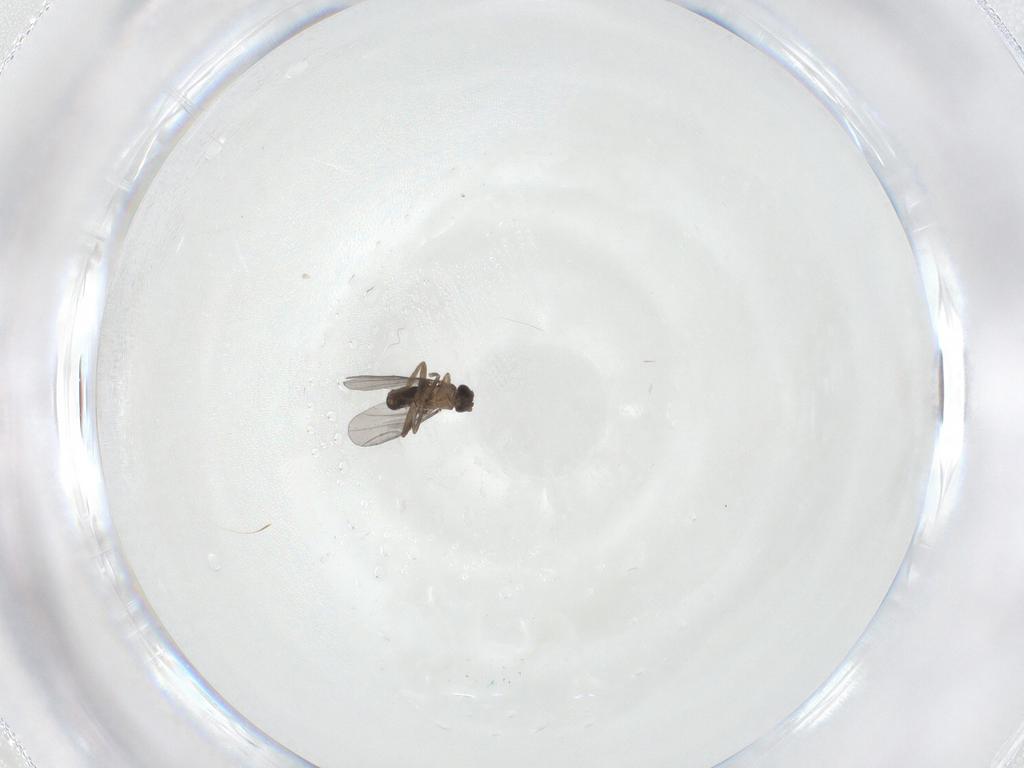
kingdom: Animalia
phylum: Arthropoda
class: Insecta
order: Diptera
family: Phoridae
